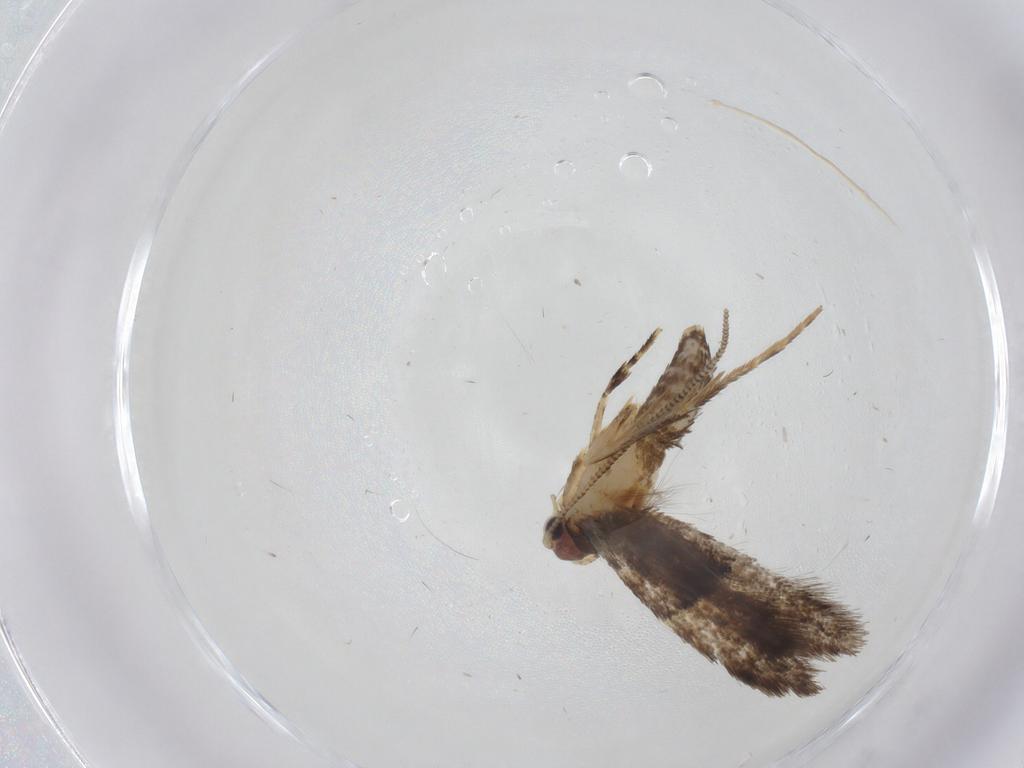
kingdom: Animalia
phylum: Arthropoda
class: Insecta
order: Lepidoptera
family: Tineidae
